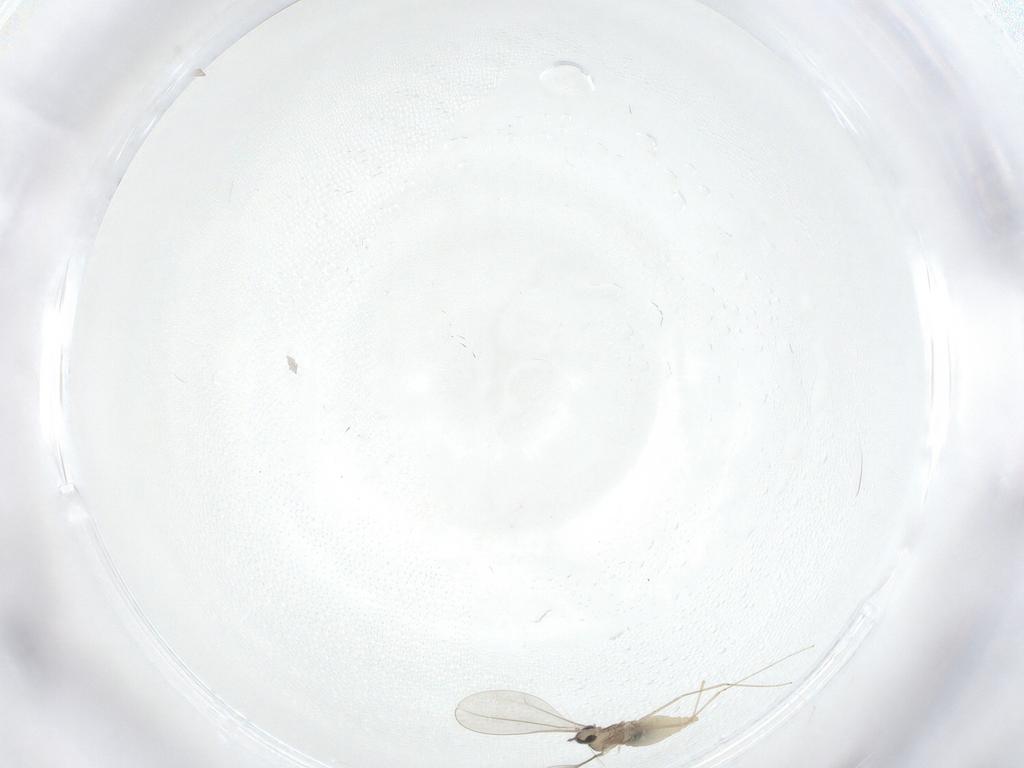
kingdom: Animalia
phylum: Arthropoda
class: Insecta
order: Diptera
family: Cecidomyiidae
